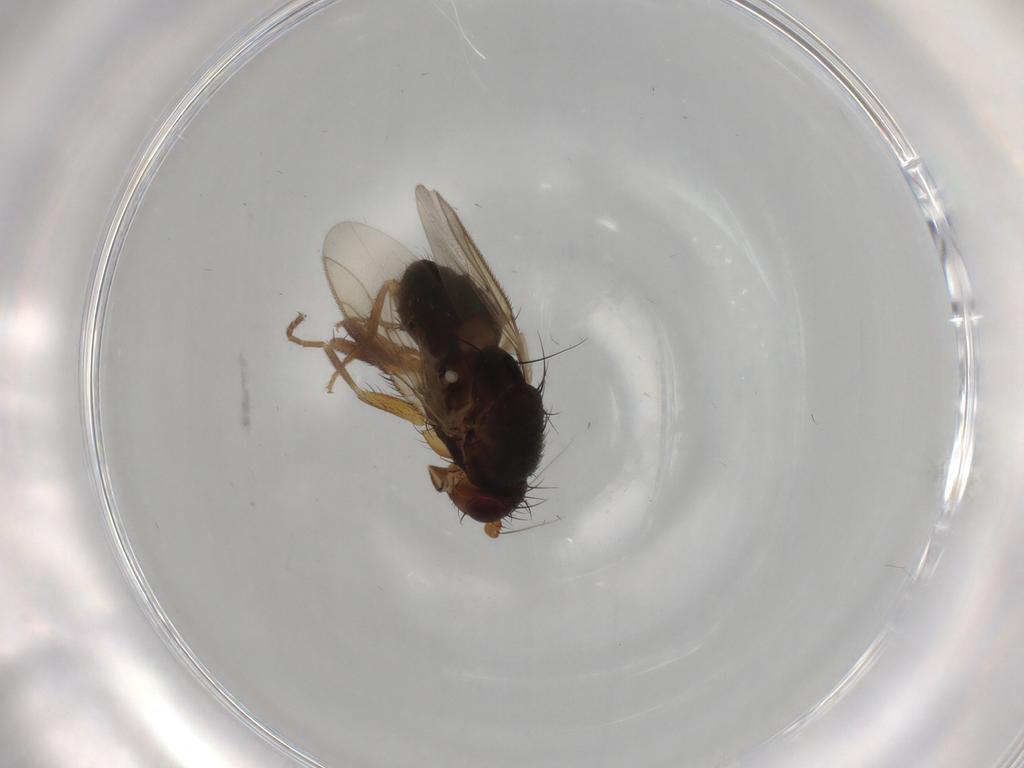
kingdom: Animalia
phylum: Arthropoda
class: Insecta
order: Diptera
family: Sphaeroceridae
